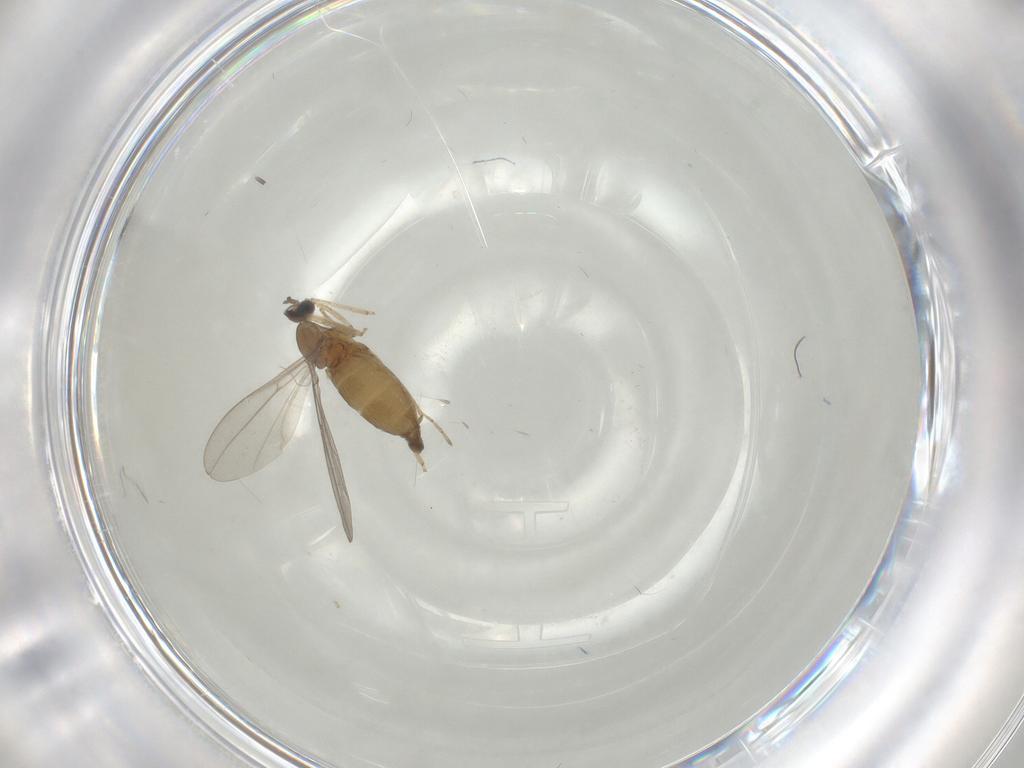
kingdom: Animalia
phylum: Arthropoda
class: Insecta
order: Diptera
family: Cecidomyiidae
